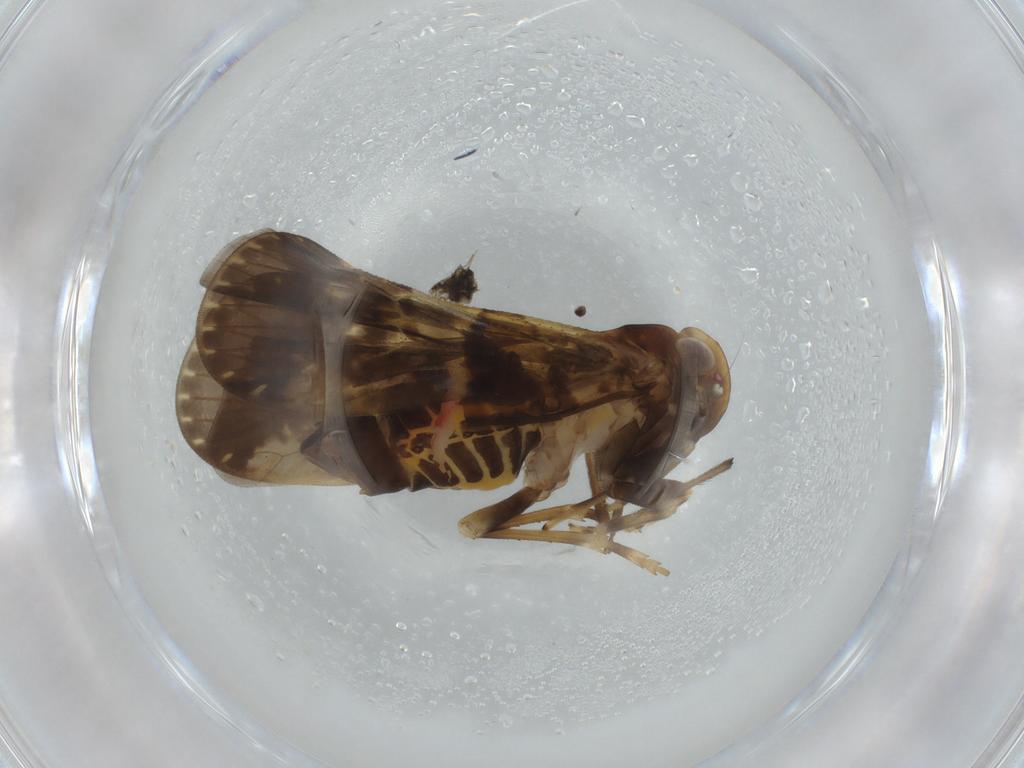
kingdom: Animalia
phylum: Arthropoda
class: Insecta
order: Hemiptera
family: Cixiidae
